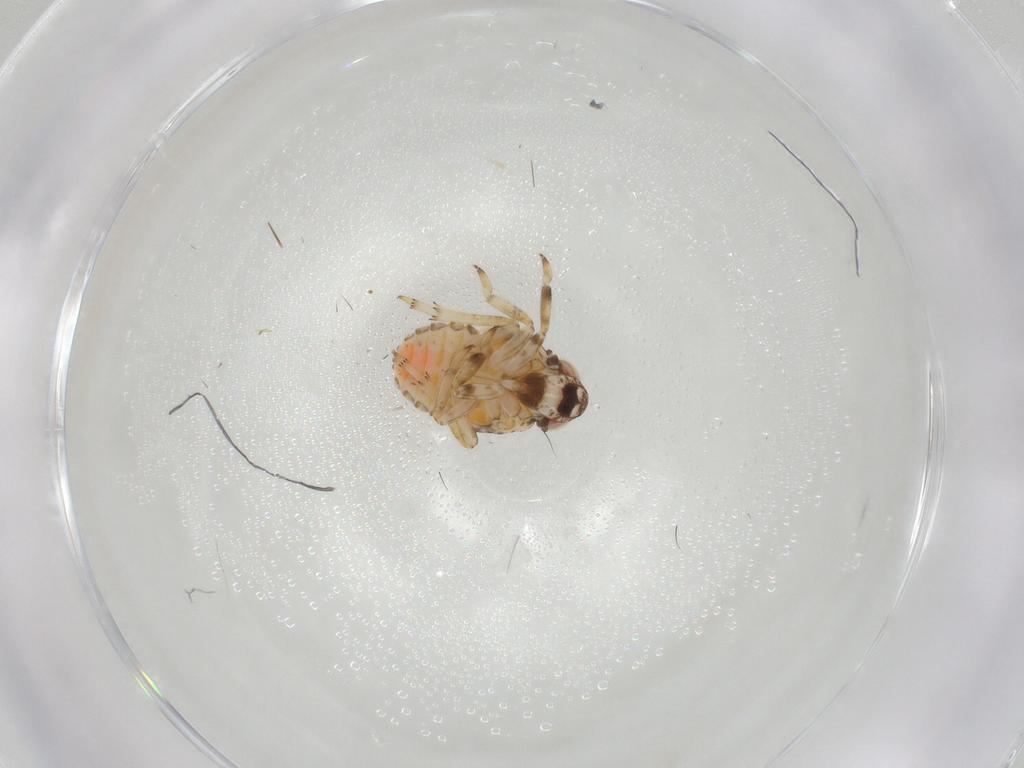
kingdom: Animalia
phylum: Arthropoda
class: Insecta
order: Hemiptera
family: Issidae
